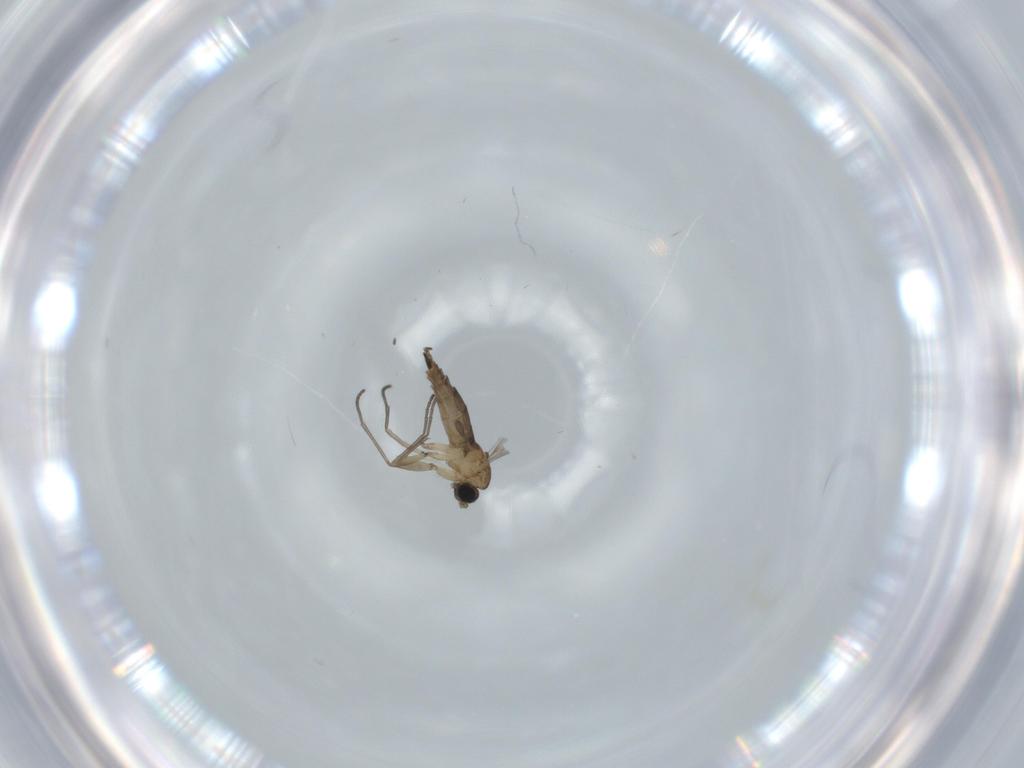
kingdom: Animalia
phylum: Arthropoda
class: Insecta
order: Diptera
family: Sciaridae
